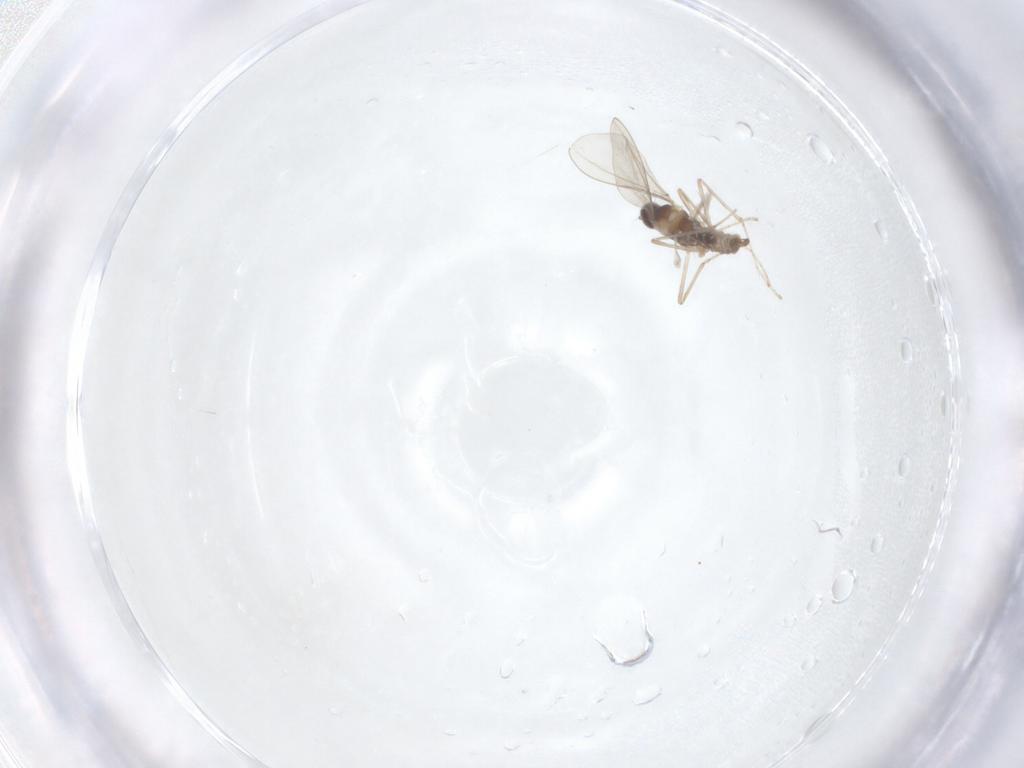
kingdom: Animalia
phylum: Arthropoda
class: Insecta
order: Diptera
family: Cecidomyiidae
